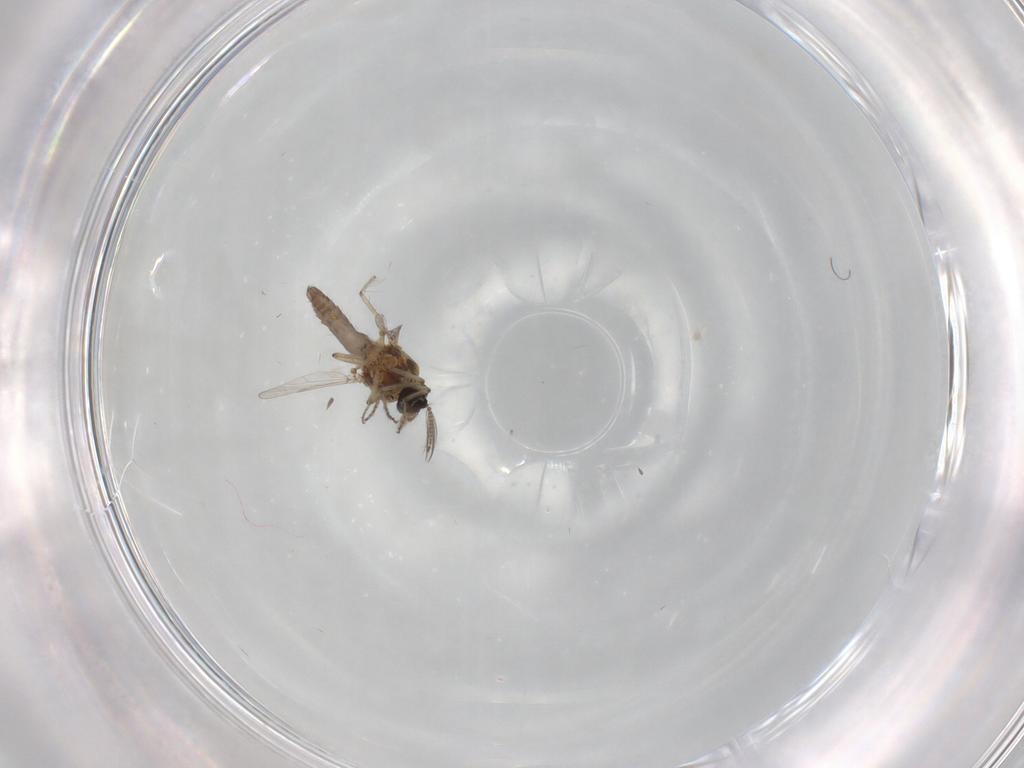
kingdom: Animalia
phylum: Arthropoda
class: Insecta
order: Diptera
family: Ceratopogonidae
